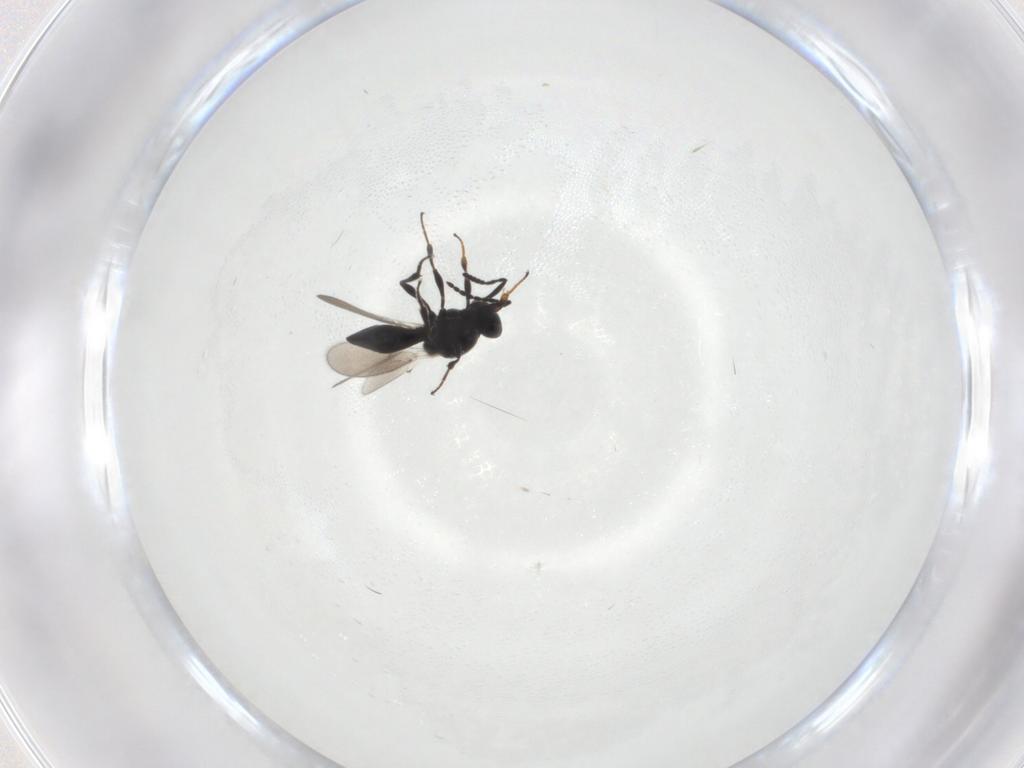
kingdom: Animalia
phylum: Arthropoda
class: Insecta
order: Hymenoptera
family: Platygastridae
